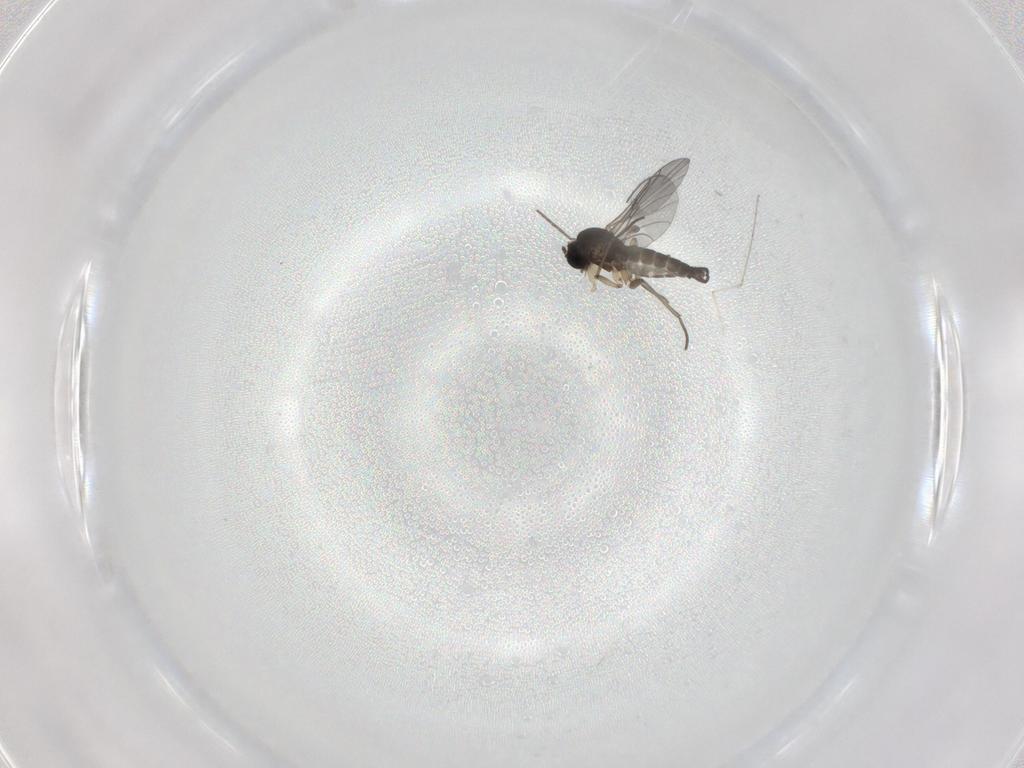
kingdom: Animalia
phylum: Arthropoda
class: Insecta
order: Diptera
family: Sciaridae
